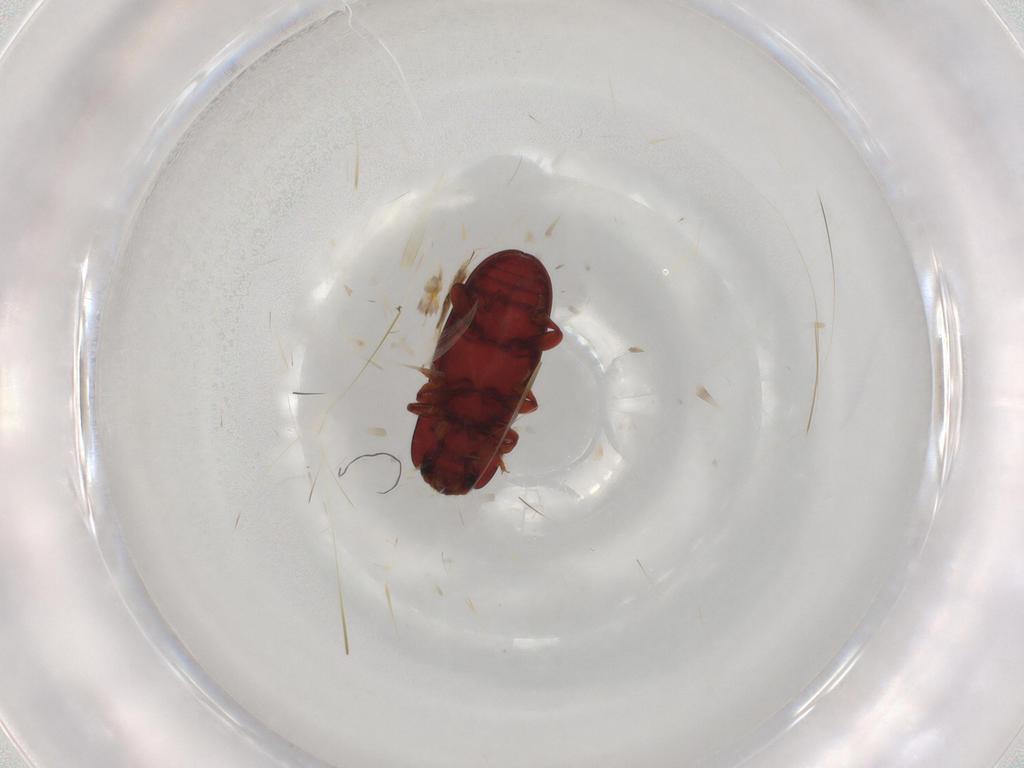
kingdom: Animalia
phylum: Arthropoda
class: Insecta
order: Coleoptera
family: Cerylonidae
